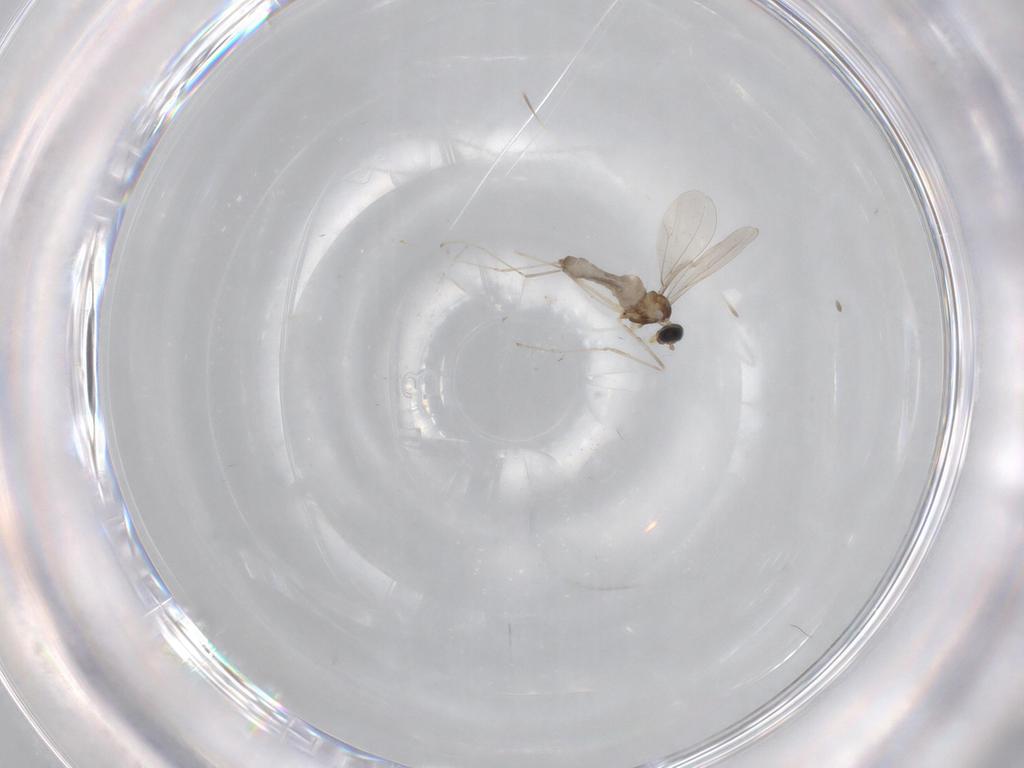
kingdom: Animalia
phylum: Arthropoda
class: Insecta
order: Diptera
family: Cecidomyiidae
